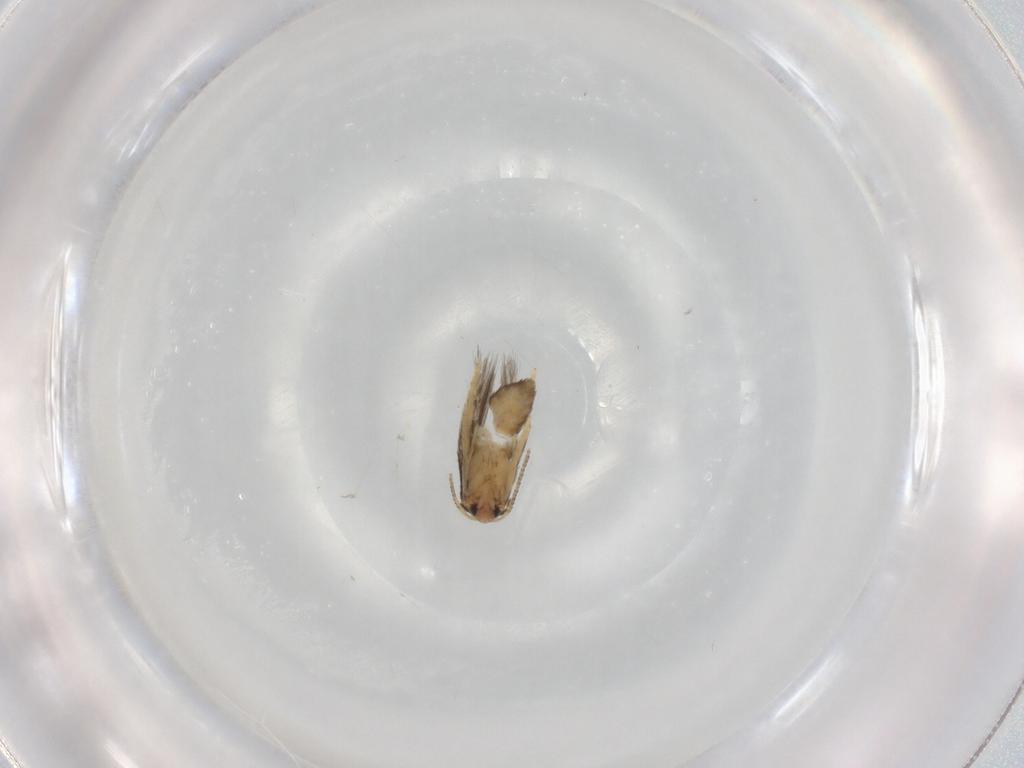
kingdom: Animalia
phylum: Arthropoda
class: Insecta
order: Lepidoptera
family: Nepticulidae
